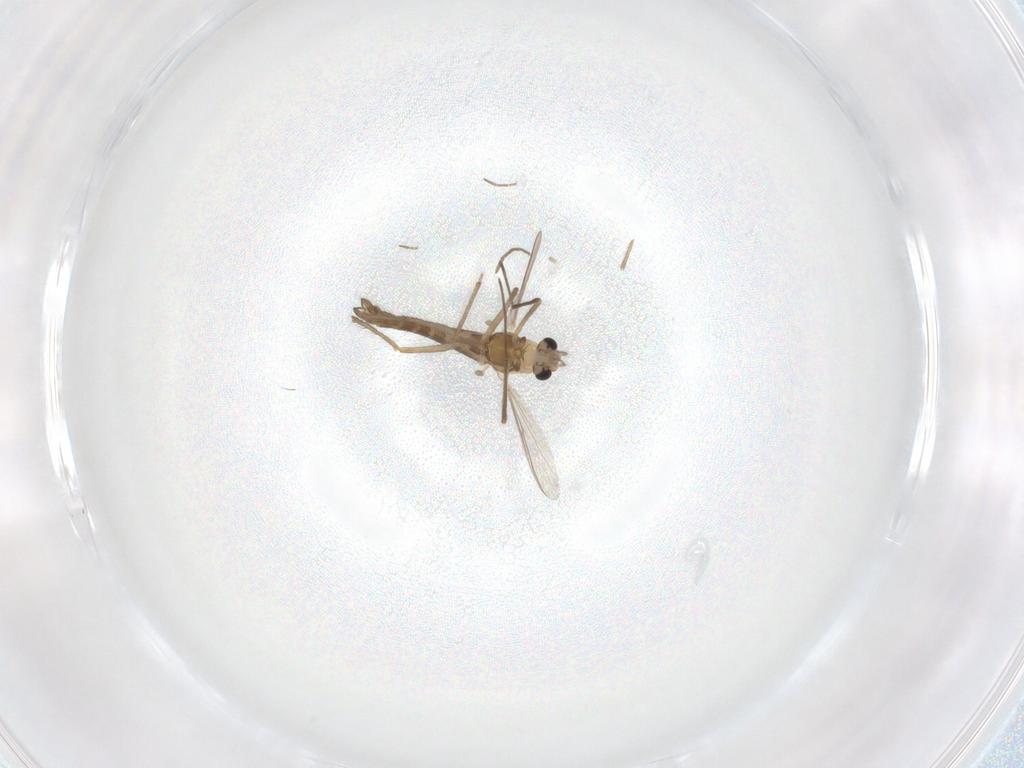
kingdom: Animalia
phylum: Arthropoda
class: Insecta
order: Diptera
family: Chironomidae
